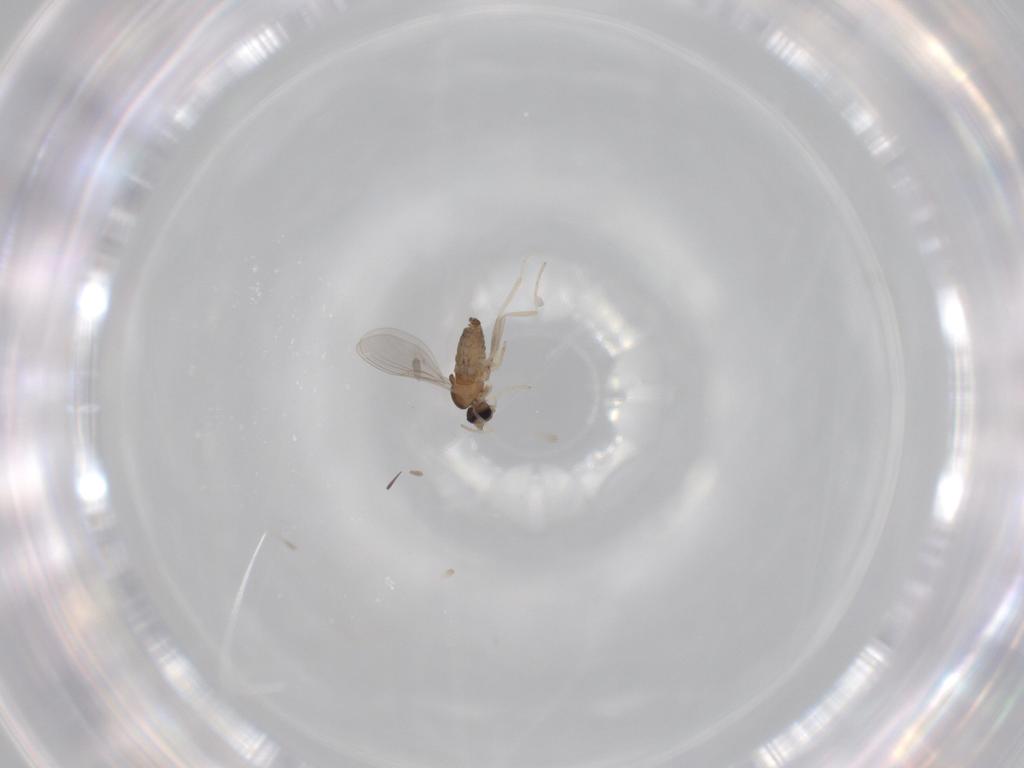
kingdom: Animalia
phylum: Arthropoda
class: Insecta
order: Diptera
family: Cecidomyiidae
